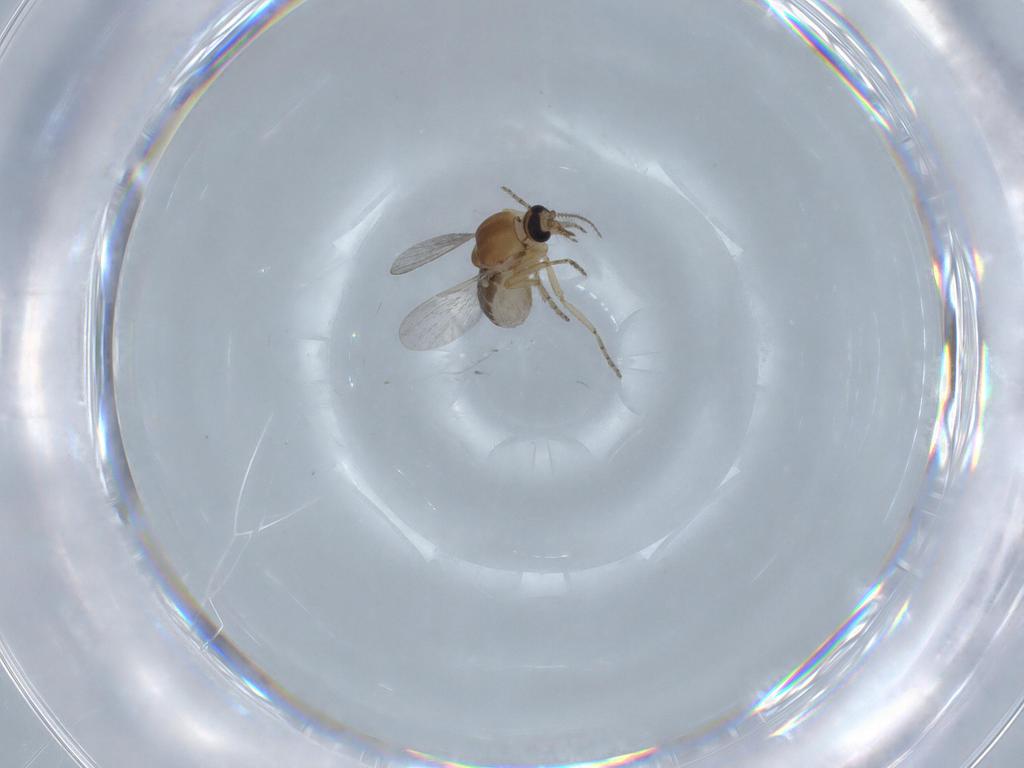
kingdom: Animalia
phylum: Arthropoda
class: Insecta
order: Diptera
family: Ceratopogonidae
